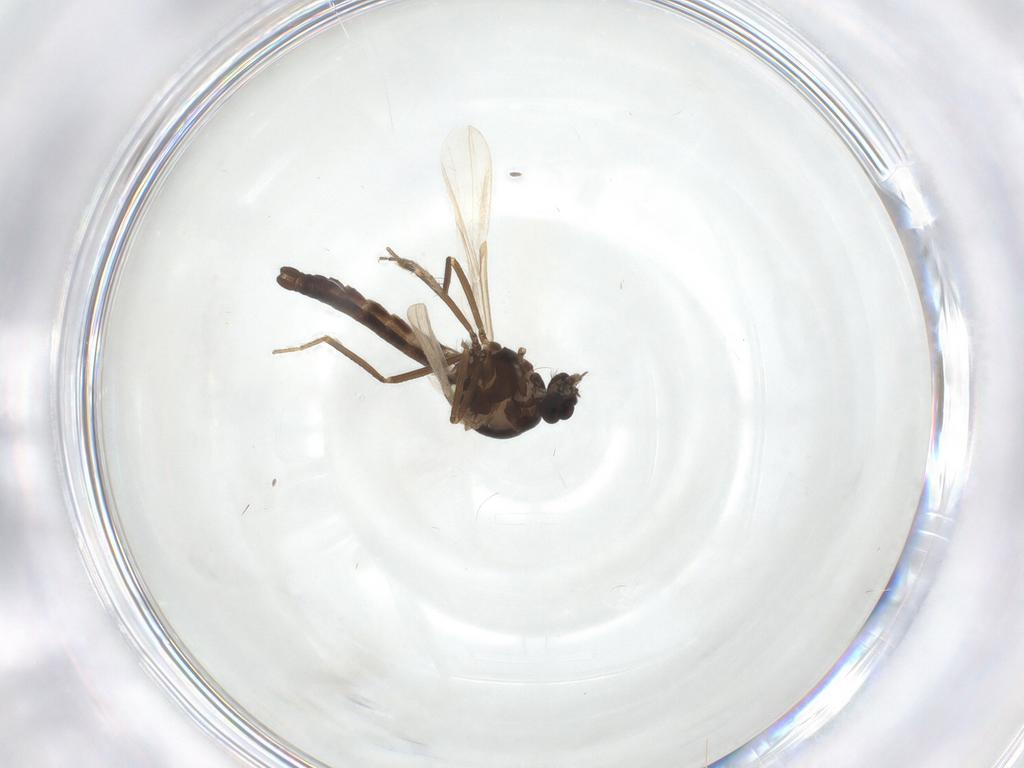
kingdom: Animalia
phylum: Arthropoda
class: Insecta
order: Diptera
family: Ceratopogonidae
